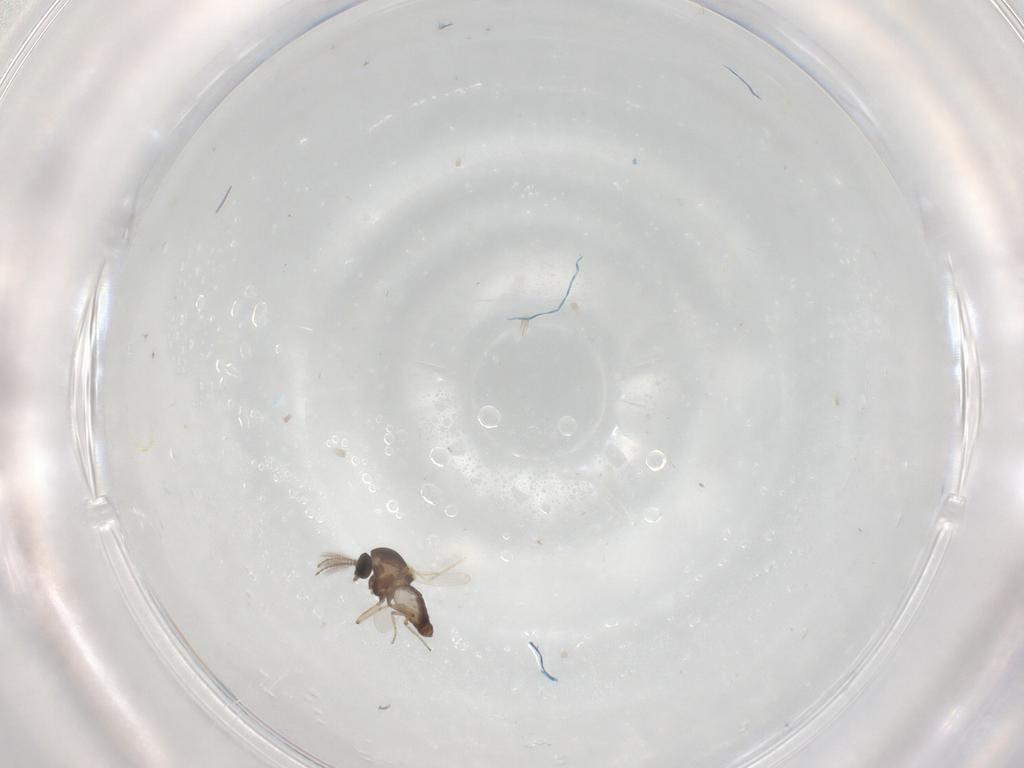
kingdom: Animalia
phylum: Arthropoda
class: Insecta
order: Diptera
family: Ceratopogonidae
